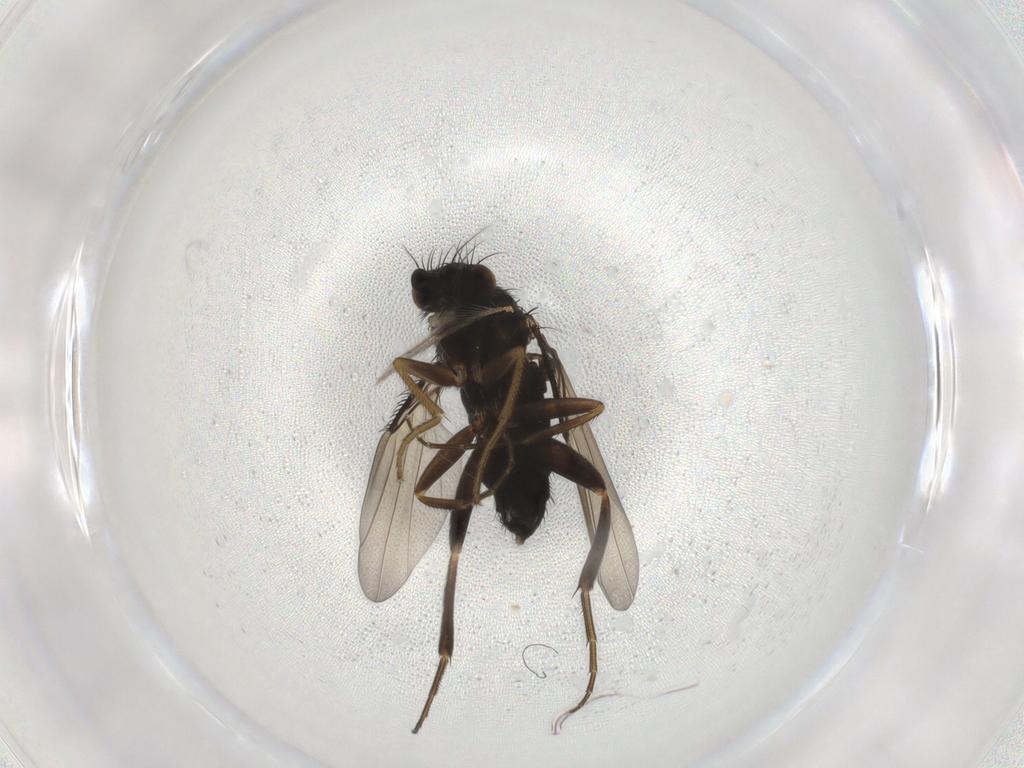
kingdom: Animalia
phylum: Arthropoda
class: Insecta
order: Diptera
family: Phoridae
